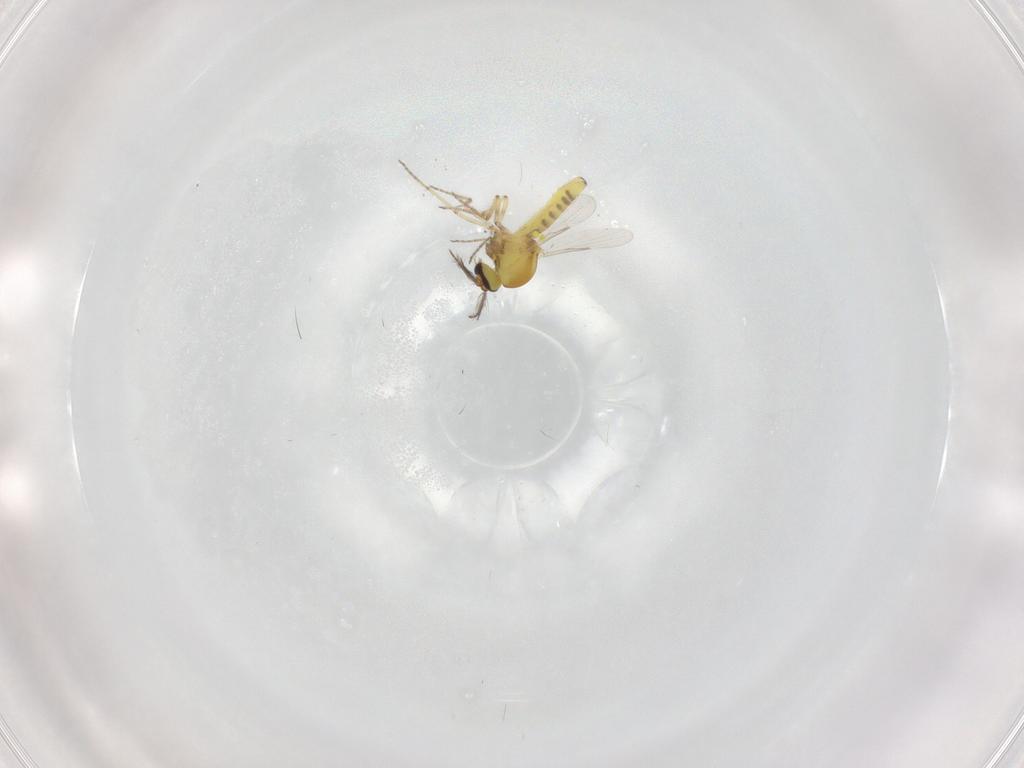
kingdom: Animalia
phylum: Arthropoda
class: Insecta
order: Diptera
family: Ceratopogonidae
